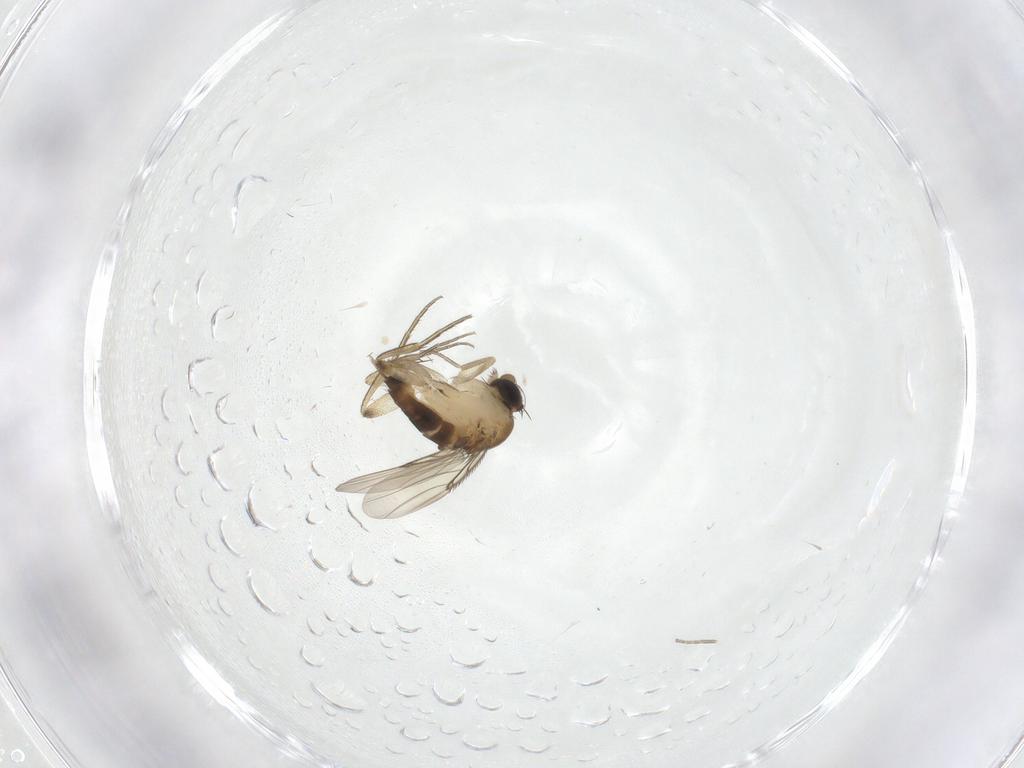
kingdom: Animalia
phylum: Arthropoda
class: Insecta
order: Diptera
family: Phoridae
